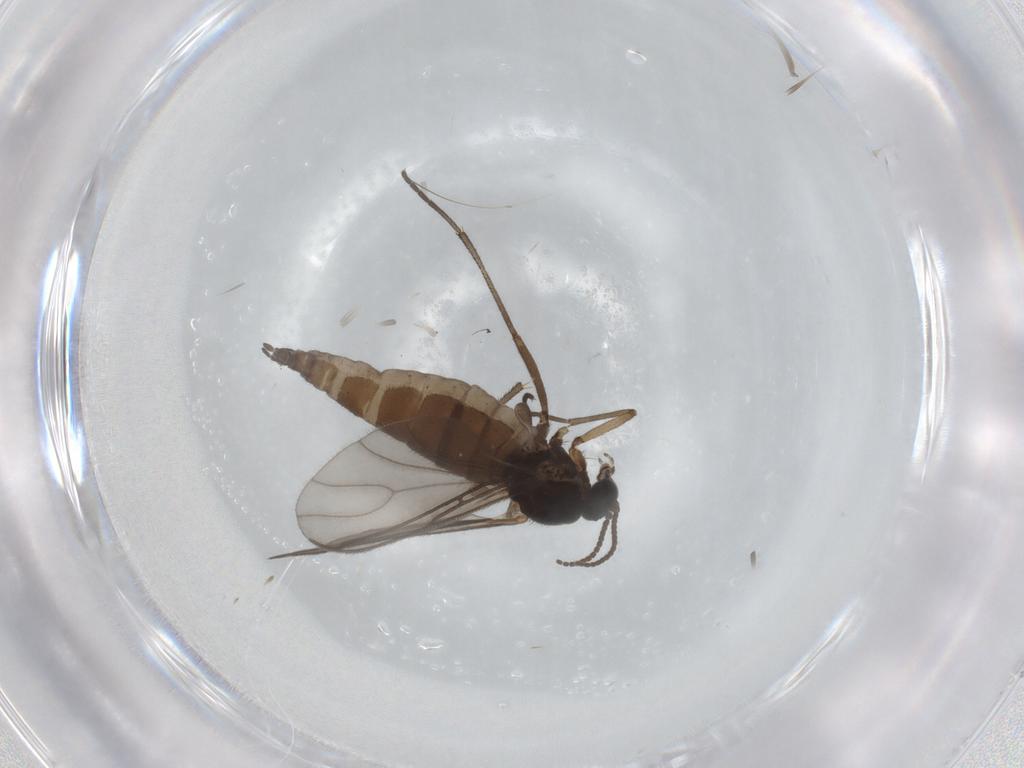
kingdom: Animalia
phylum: Arthropoda
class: Insecta
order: Diptera
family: Sciaridae
